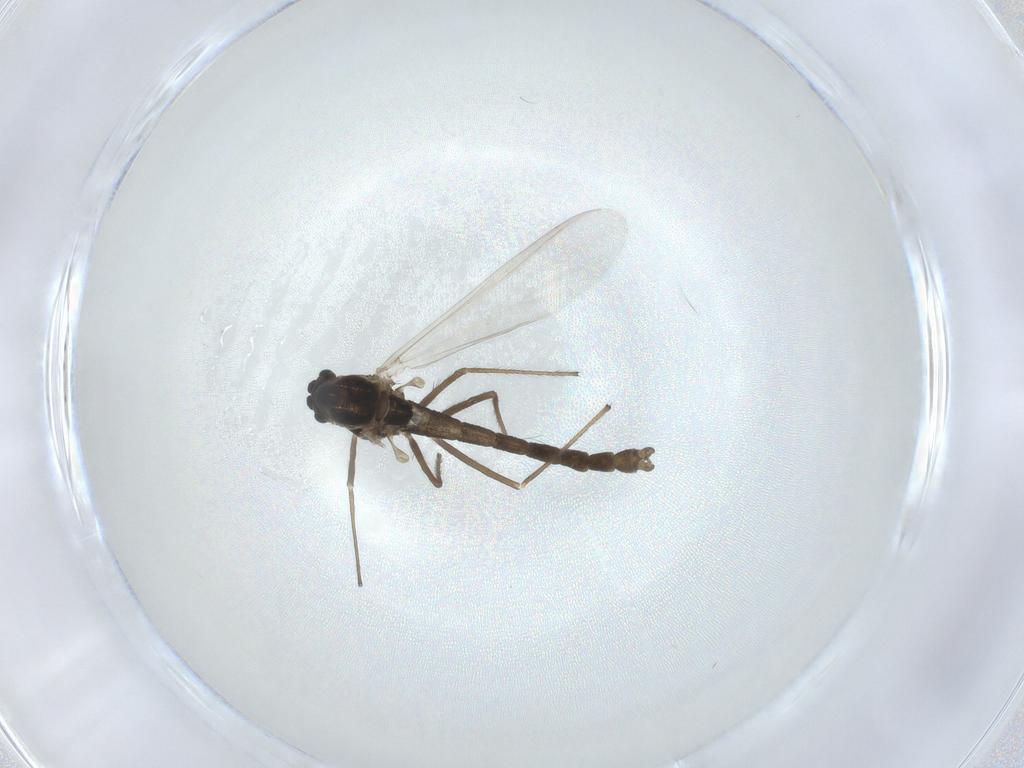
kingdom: Animalia
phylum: Arthropoda
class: Insecta
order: Diptera
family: Chironomidae
